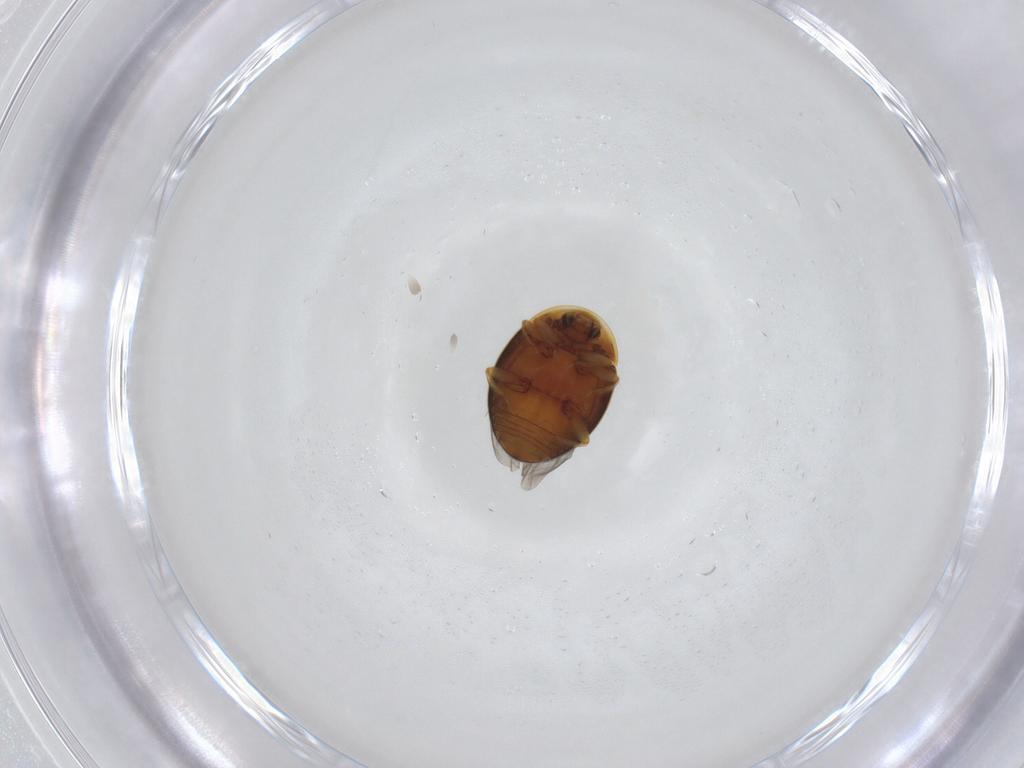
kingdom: Animalia
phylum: Arthropoda
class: Insecta
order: Coleoptera
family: Corylophidae
